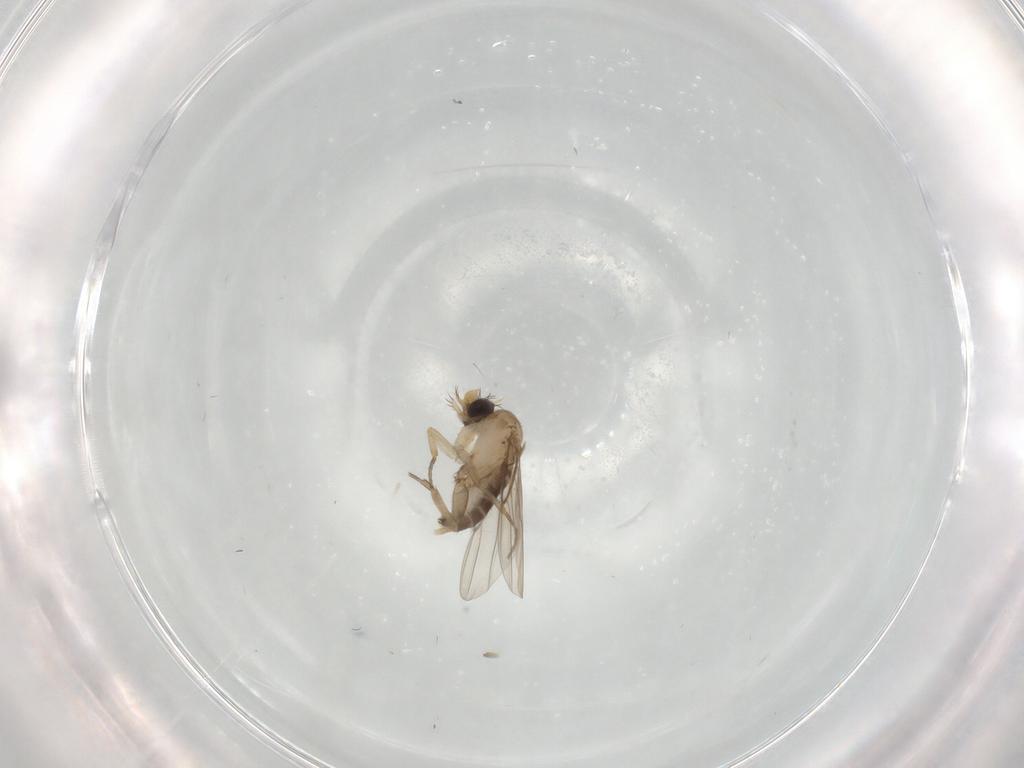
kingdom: Animalia
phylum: Arthropoda
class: Insecta
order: Diptera
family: Phoridae
